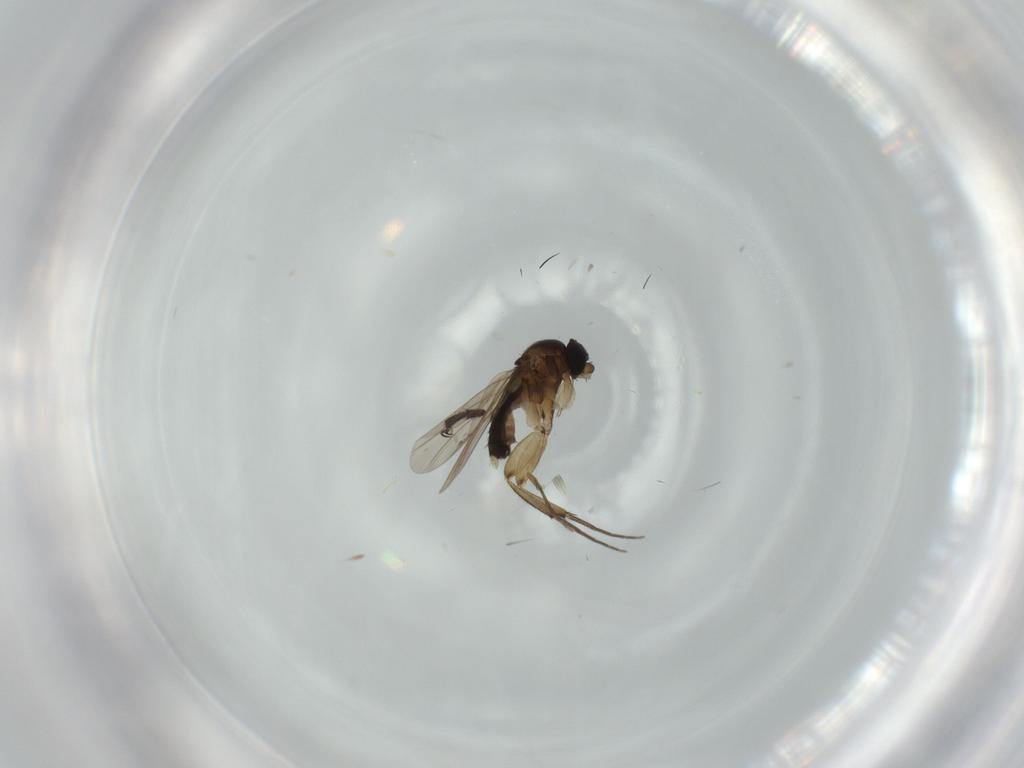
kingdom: Animalia
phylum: Arthropoda
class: Insecta
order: Diptera
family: Phoridae
